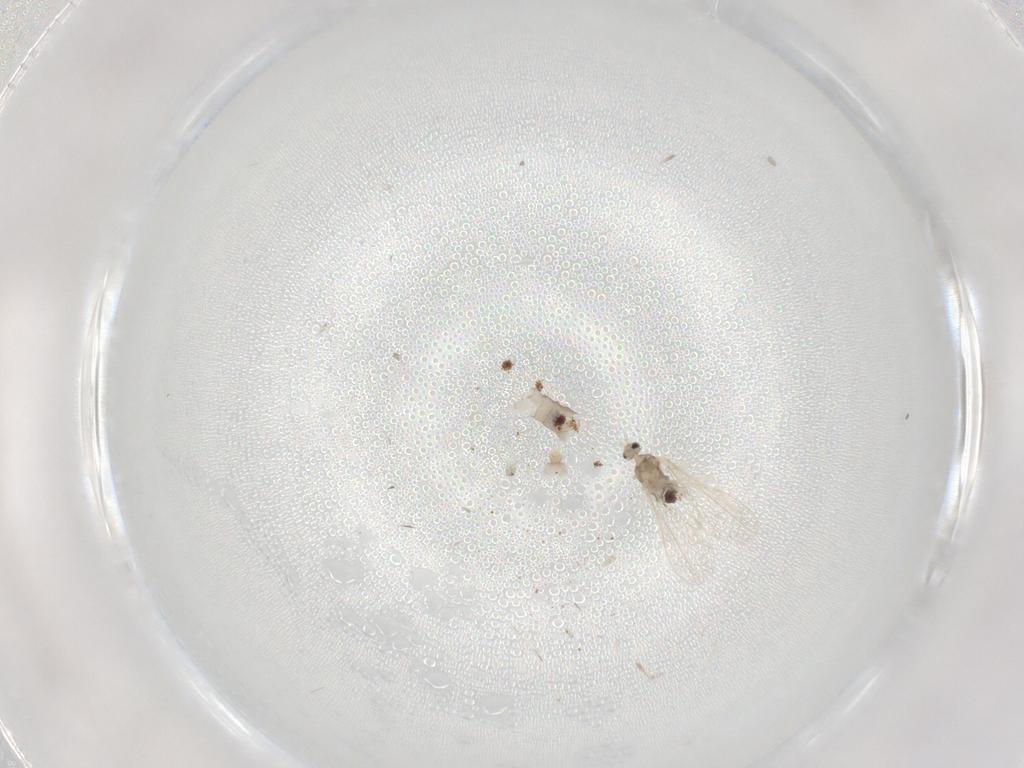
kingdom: Animalia
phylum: Arthropoda
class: Insecta
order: Diptera
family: Cecidomyiidae
